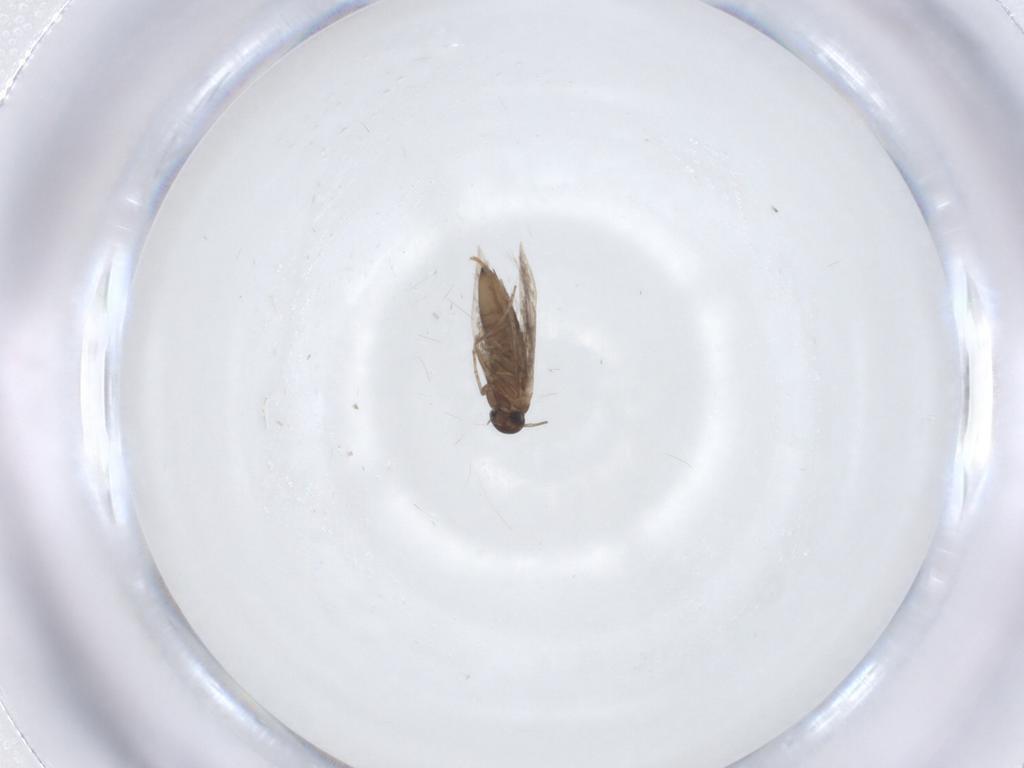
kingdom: Animalia
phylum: Arthropoda
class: Insecta
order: Lepidoptera
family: Heliozelidae
